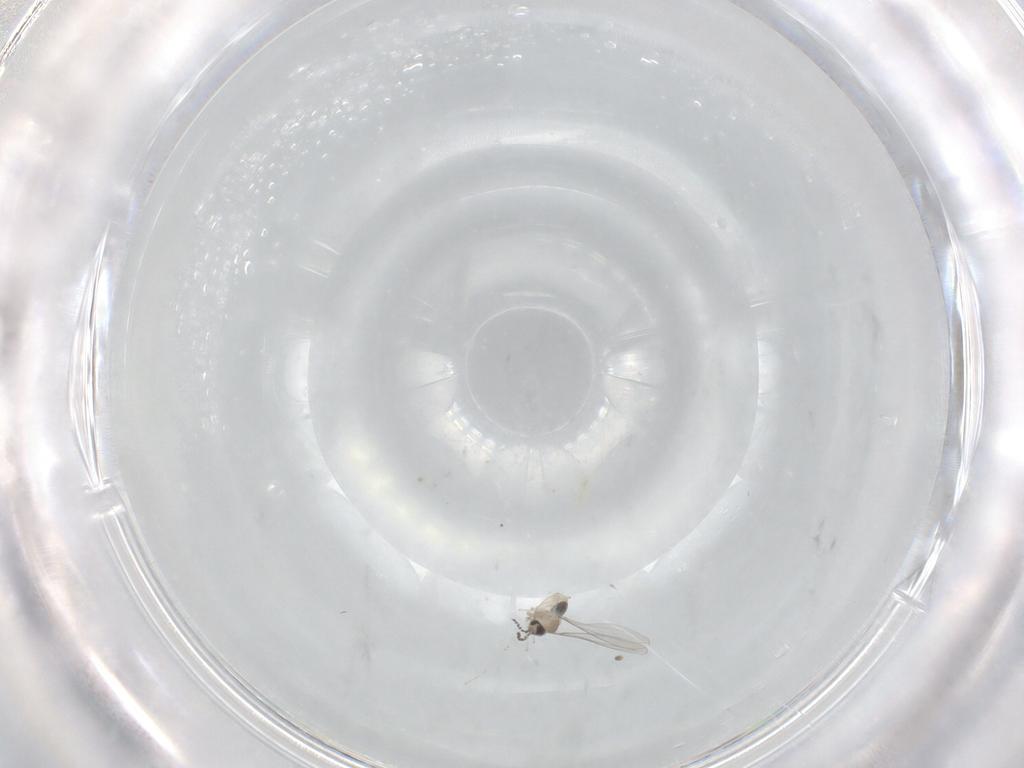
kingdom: Animalia
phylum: Arthropoda
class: Insecta
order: Diptera
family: Cecidomyiidae
